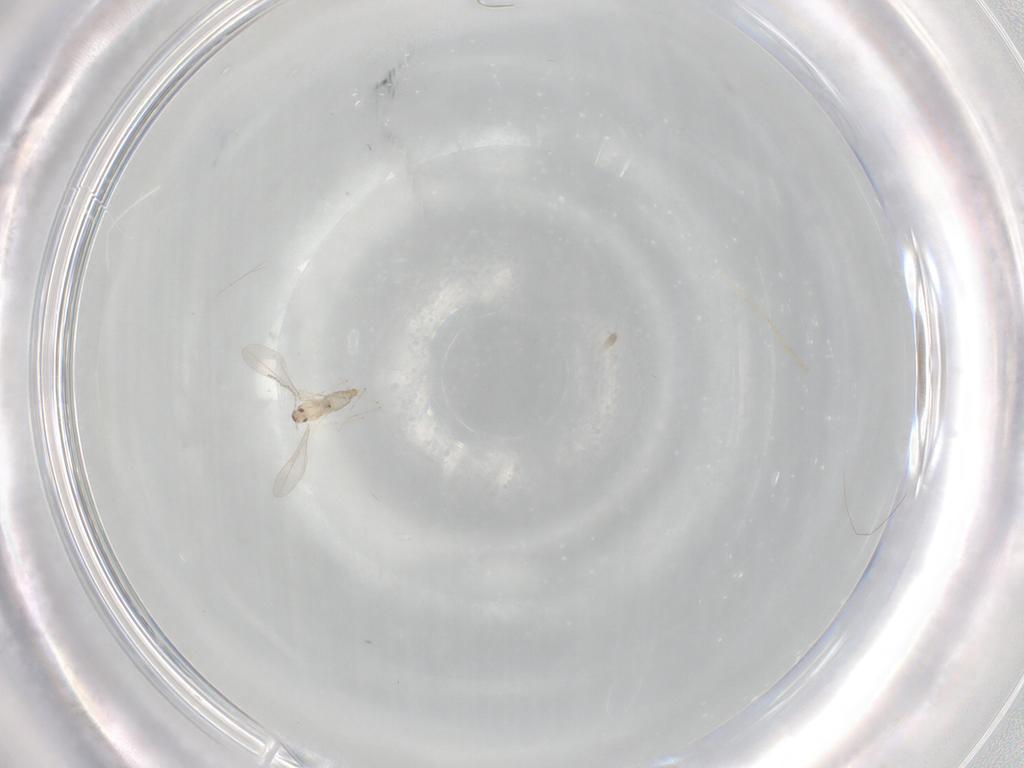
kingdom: Animalia
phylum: Arthropoda
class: Insecta
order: Diptera
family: Cecidomyiidae
